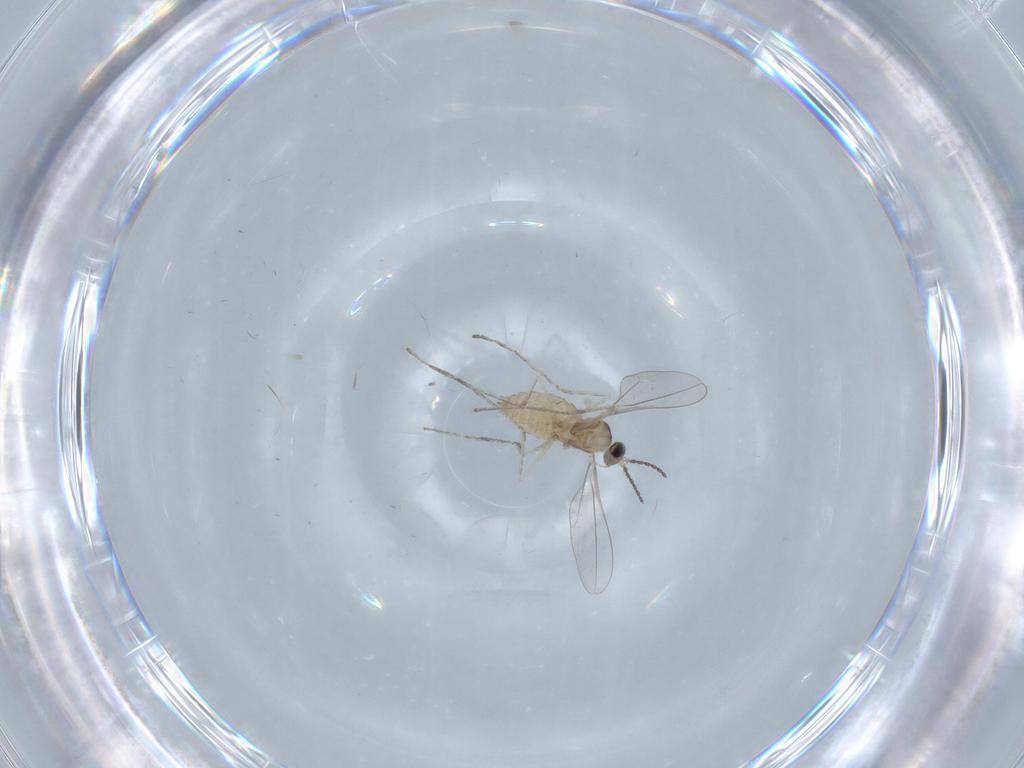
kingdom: Animalia
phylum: Arthropoda
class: Insecta
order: Diptera
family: Cecidomyiidae
